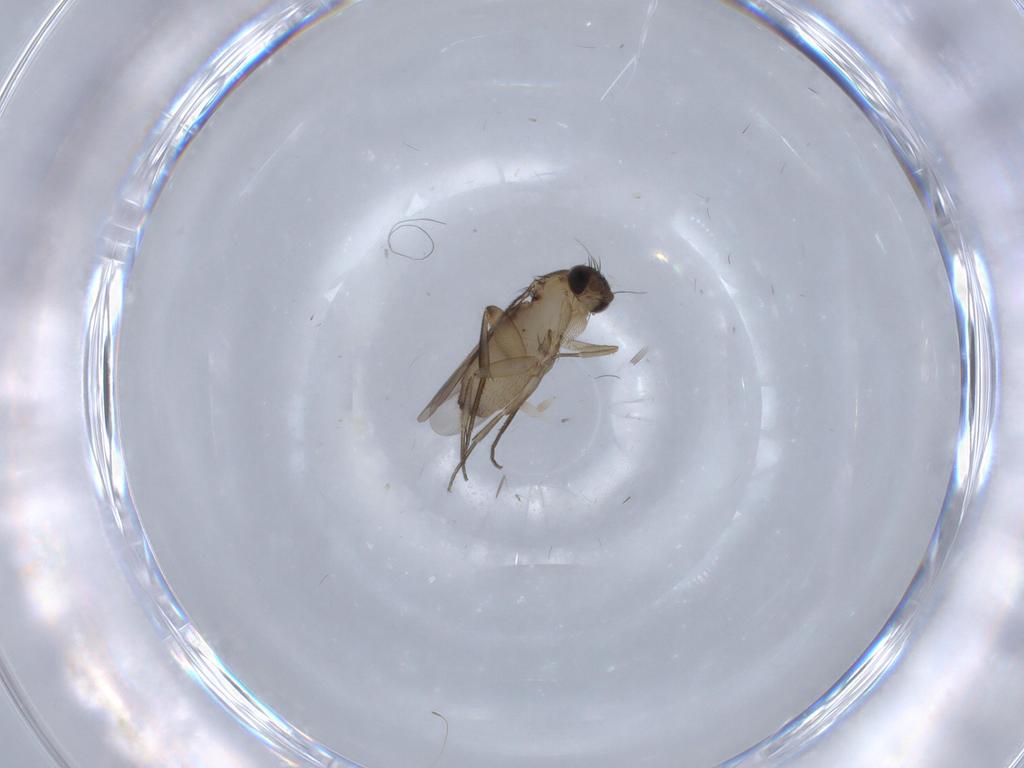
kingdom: Animalia
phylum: Arthropoda
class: Insecta
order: Diptera
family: Phoridae
